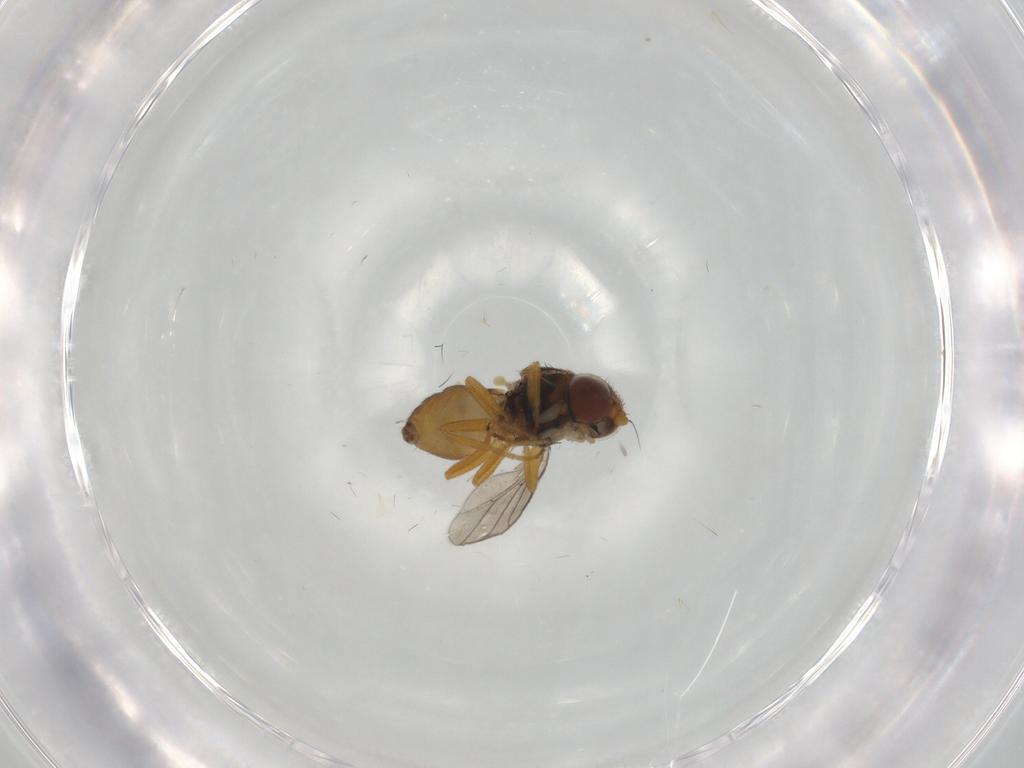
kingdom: Animalia
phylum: Arthropoda
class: Insecta
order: Diptera
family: Chloropidae
